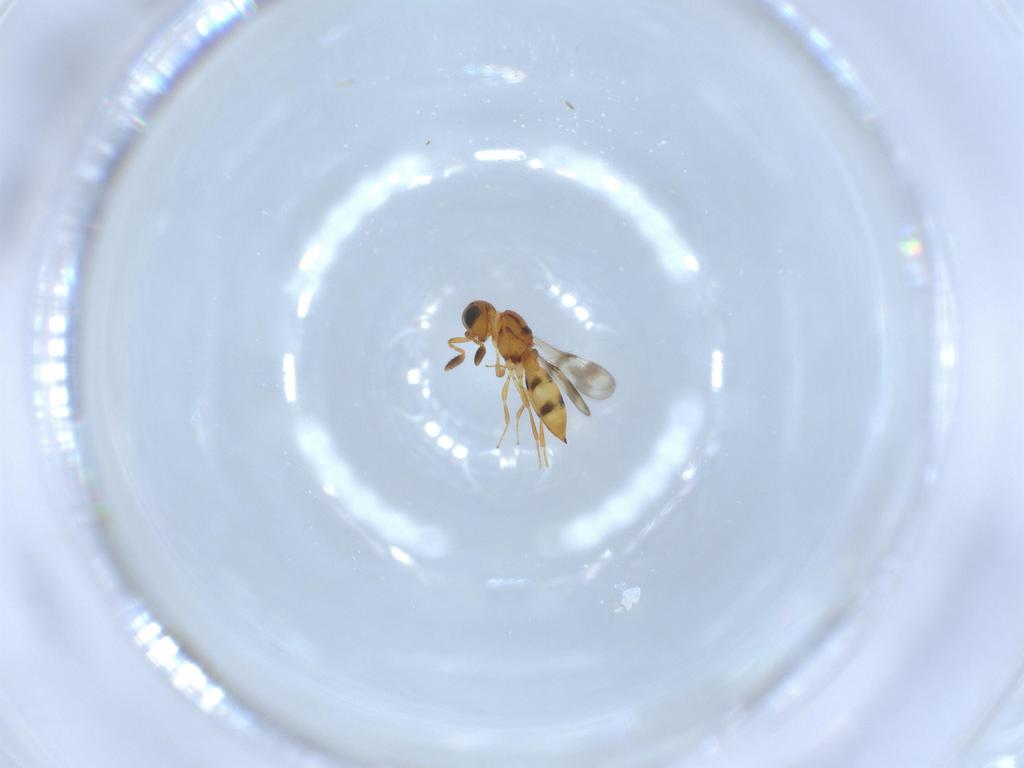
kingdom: Animalia
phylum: Arthropoda
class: Insecta
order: Hymenoptera
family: Scelionidae
